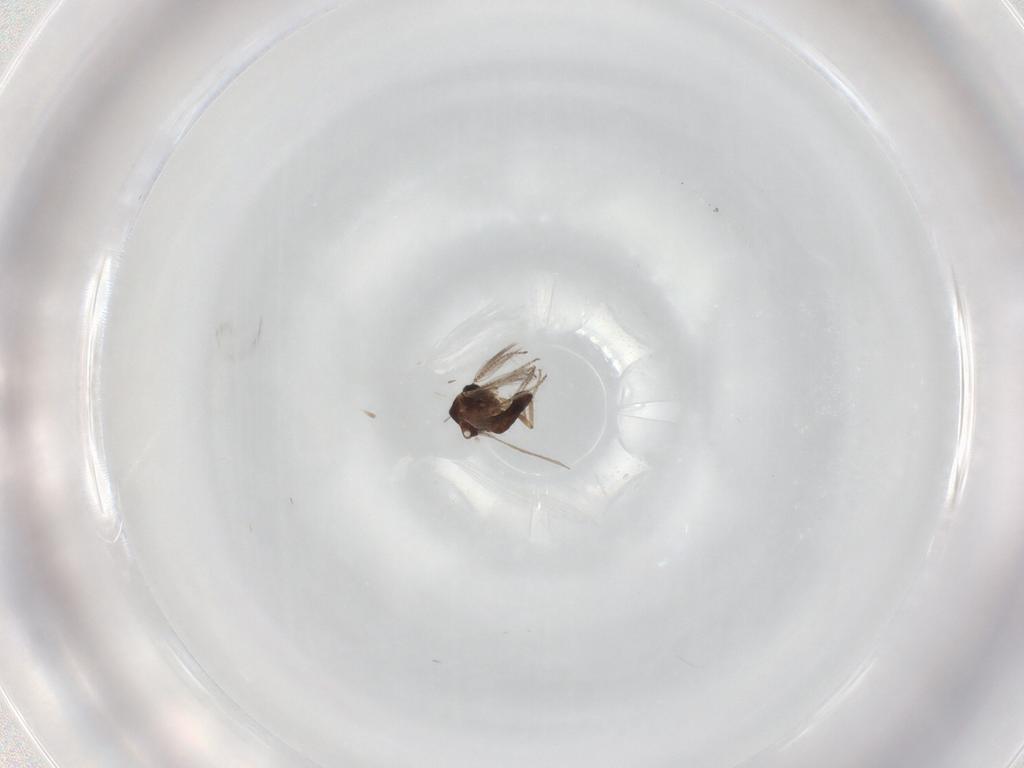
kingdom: Animalia
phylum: Arthropoda
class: Insecta
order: Diptera
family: Ceratopogonidae
